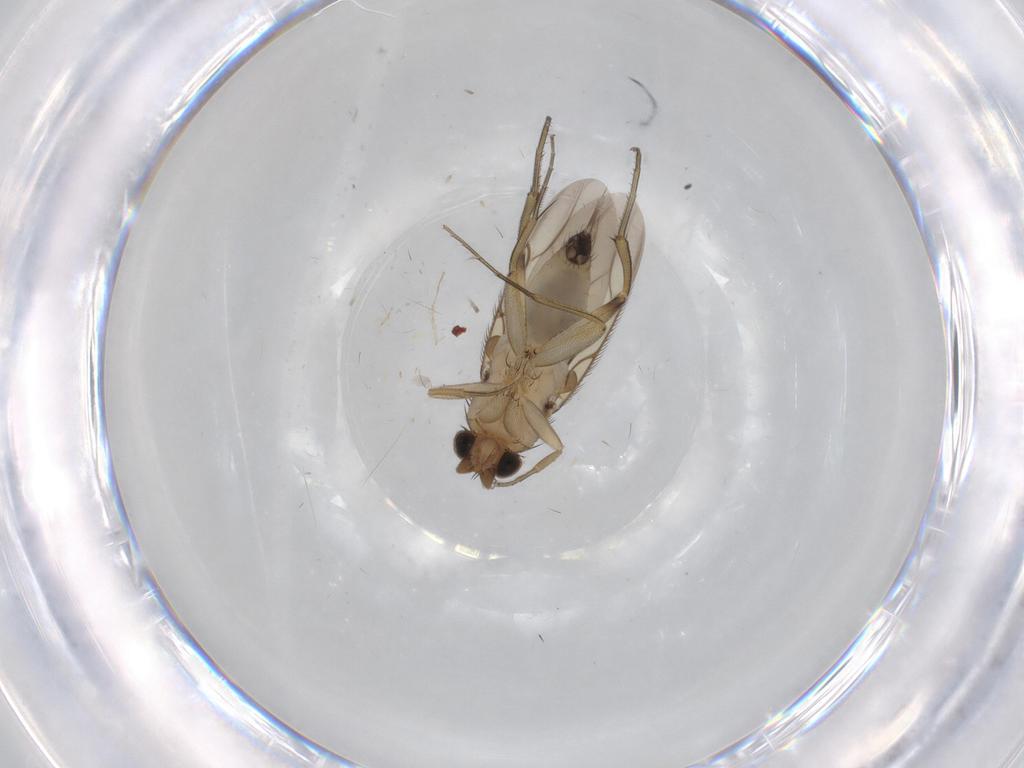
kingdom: Animalia
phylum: Arthropoda
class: Insecta
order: Diptera
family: Phoridae
